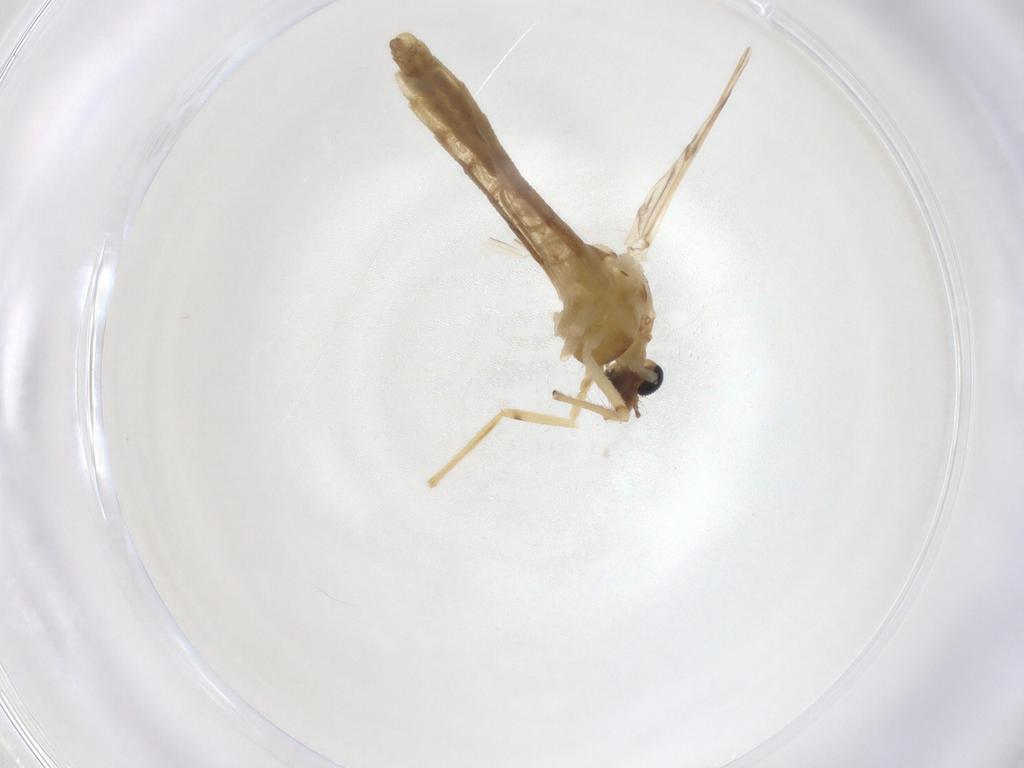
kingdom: Animalia
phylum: Arthropoda
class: Insecta
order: Diptera
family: Chironomidae
